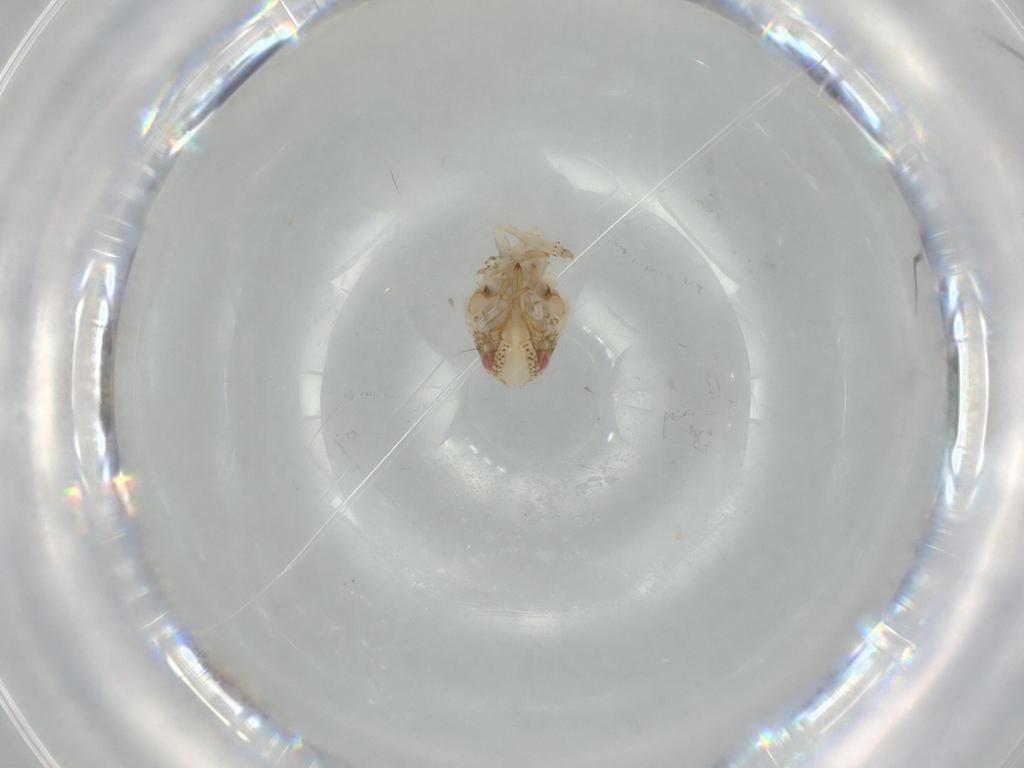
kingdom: Animalia
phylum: Arthropoda
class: Insecta
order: Hemiptera
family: Acanaloniidae
